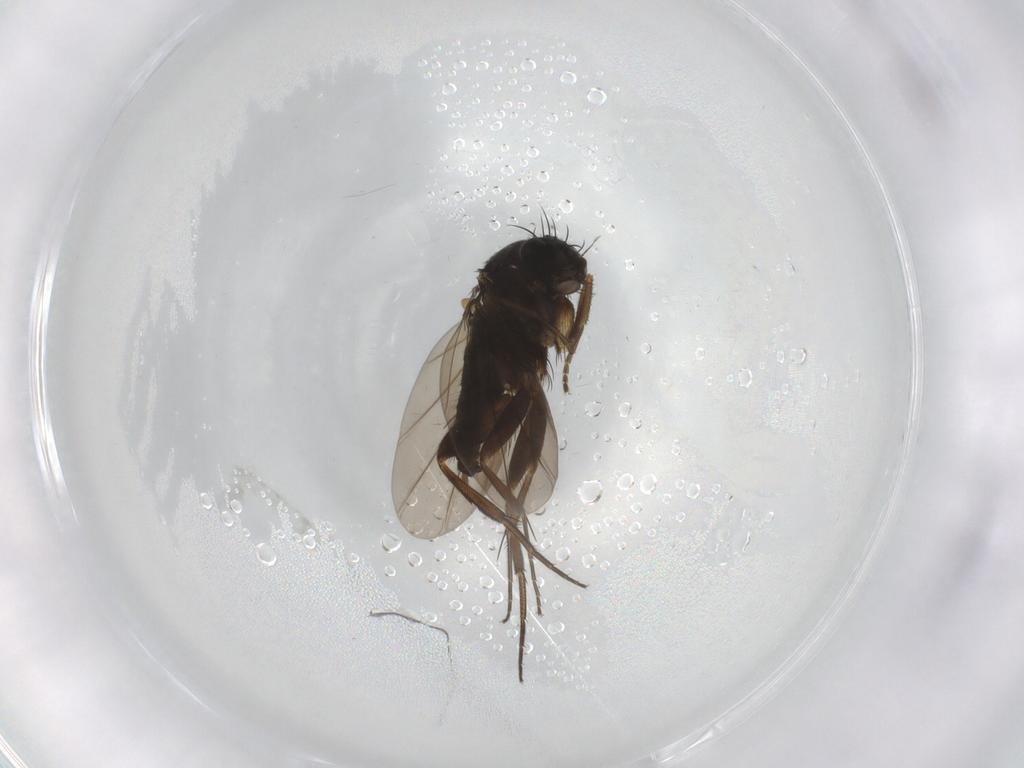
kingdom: Animalia
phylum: Arthropoda
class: Insecta
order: Diptera
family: Phoridae
